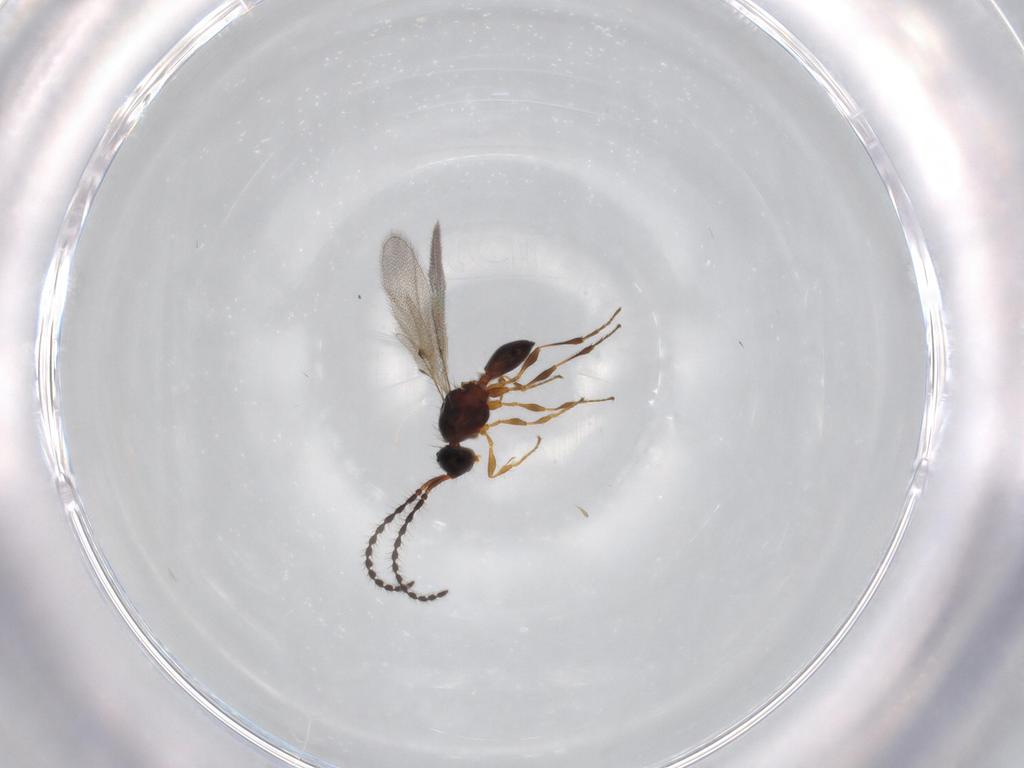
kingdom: Animalia
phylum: Arthropoda
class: Insecta
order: Hymenoptera
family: Diapriidae
